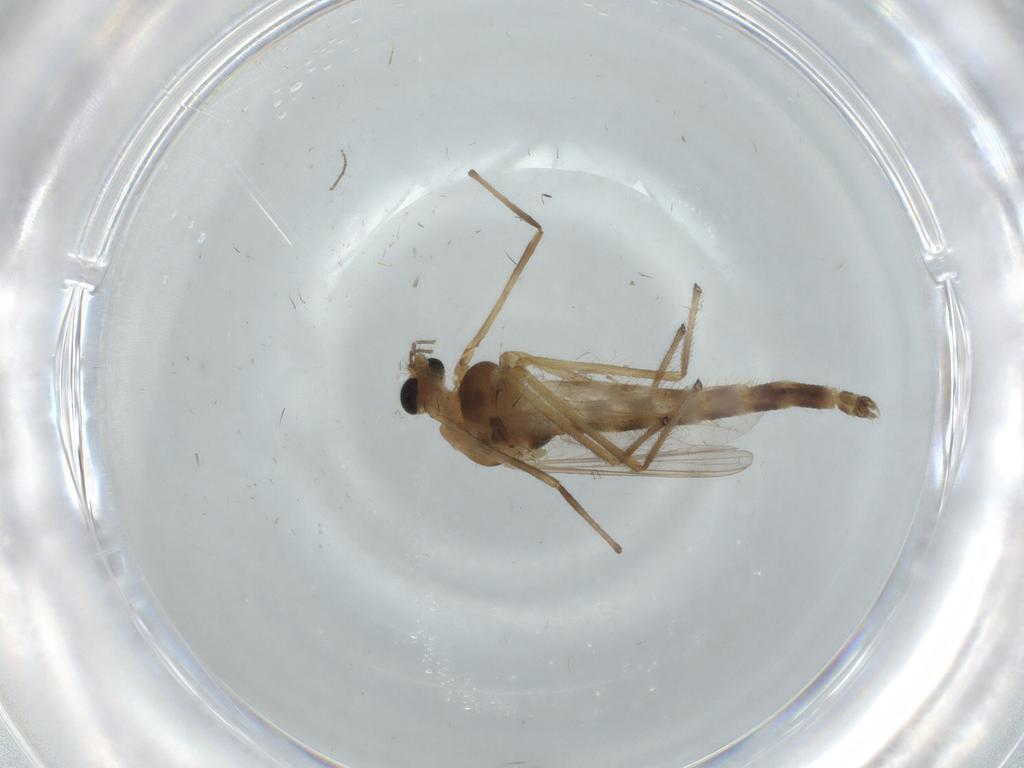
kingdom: Animalia
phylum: Arthropoda
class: Insecta
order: Diptera
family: Chironomidae
